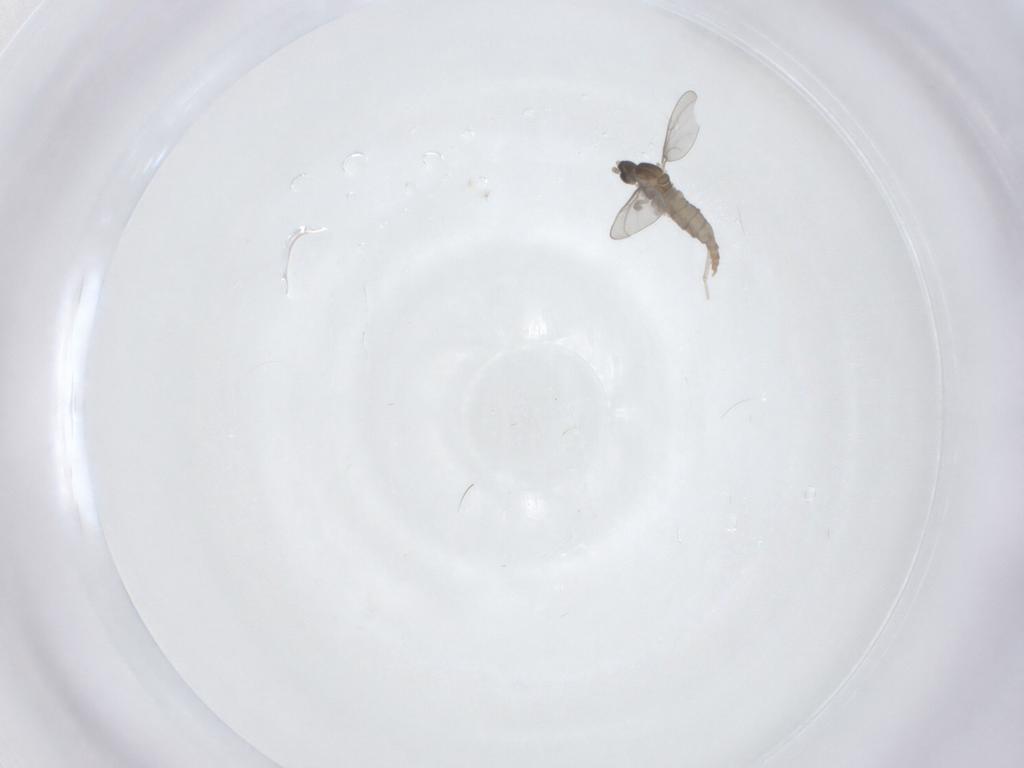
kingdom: Animalia
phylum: Arthropoda
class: Insecta
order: Diptera
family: Cecidomyiidae
